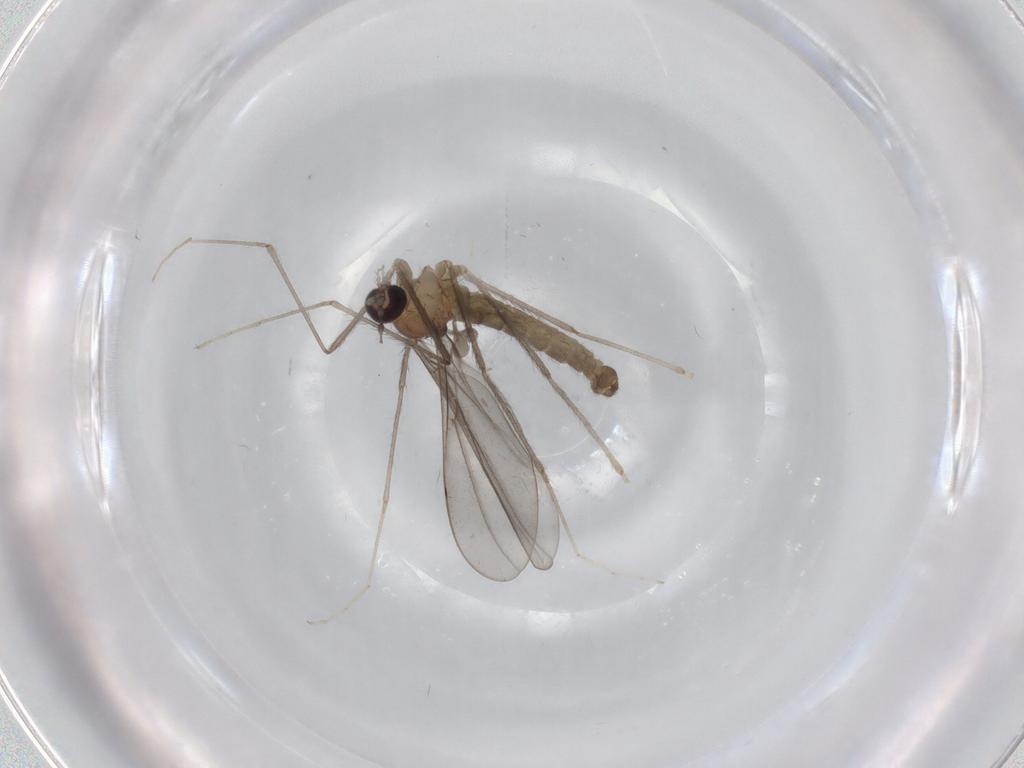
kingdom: Animalia
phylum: Arthropoda
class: Insecta
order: Diptera
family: Cecidomyiidae
